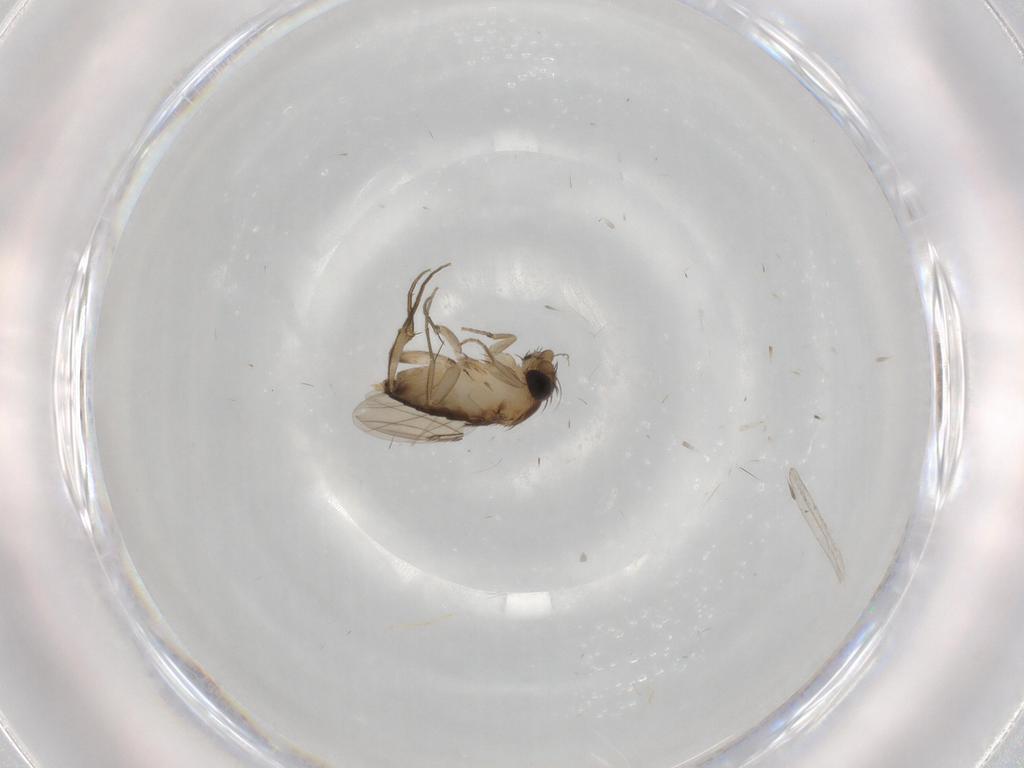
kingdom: Animalia
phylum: Arthropoda
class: Insecta
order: Diptera
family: Phoridae
